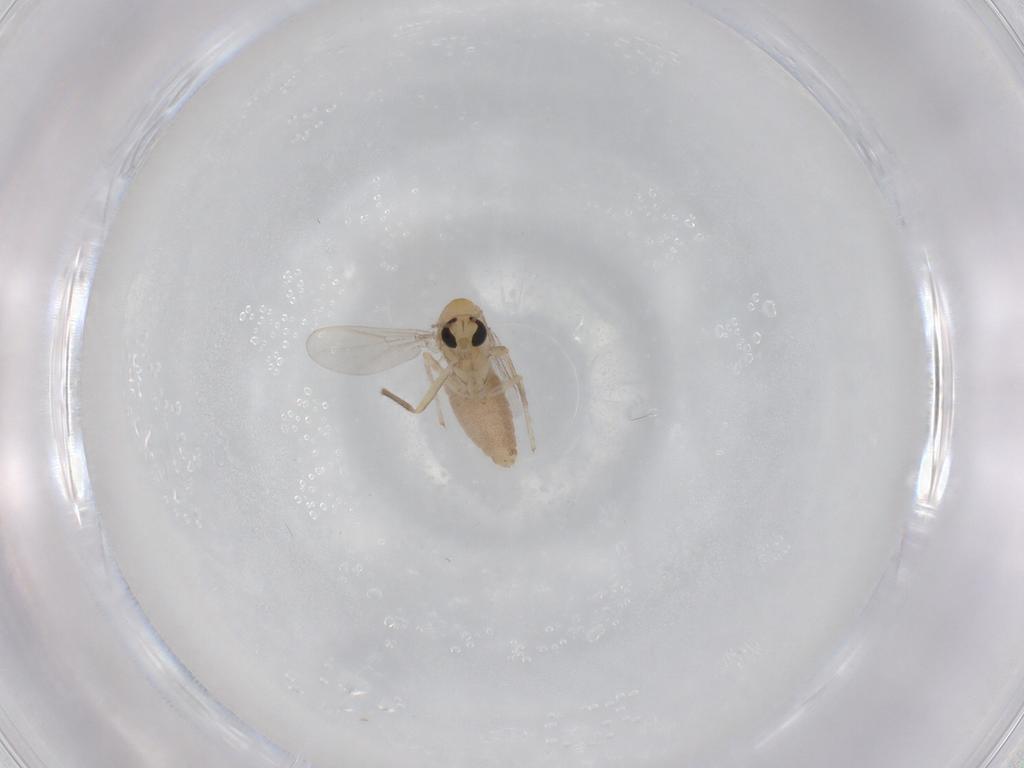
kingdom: Animalia
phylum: Arthropoda
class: Insecta
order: Diptera
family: Chironomidae
